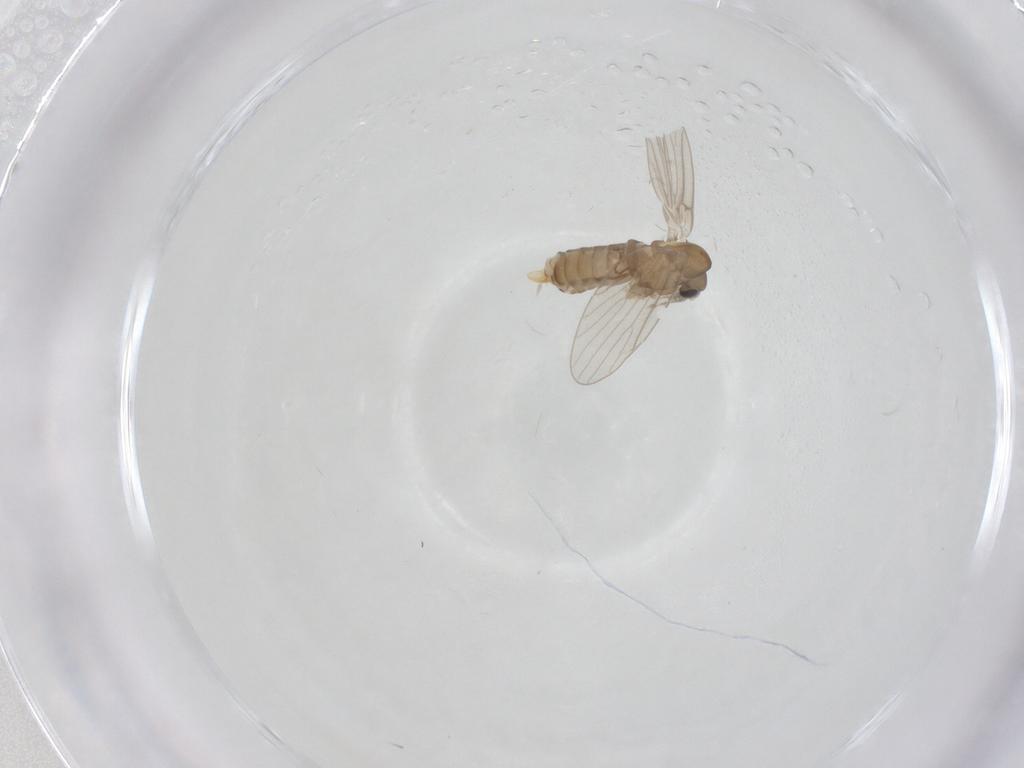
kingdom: Animalia
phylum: Arthropoda
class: Insecta
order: Diptera
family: Psychodidae
